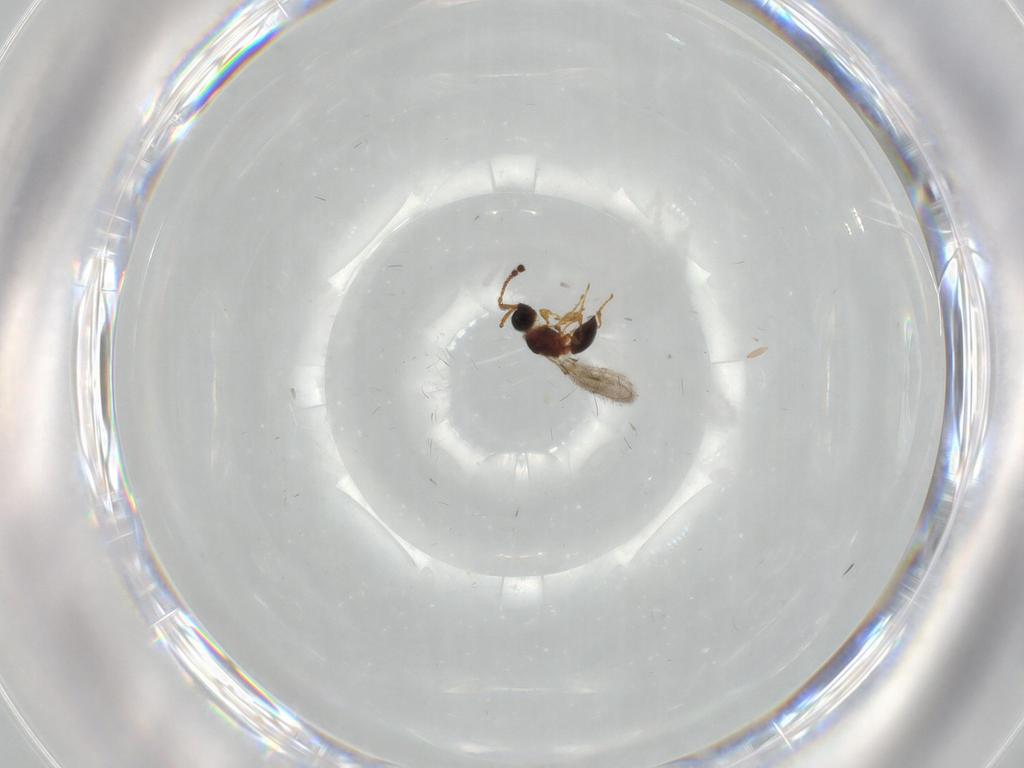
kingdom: Animalia
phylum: Arthropoda
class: Insecta
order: Hymenoptera
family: Diapriidae
